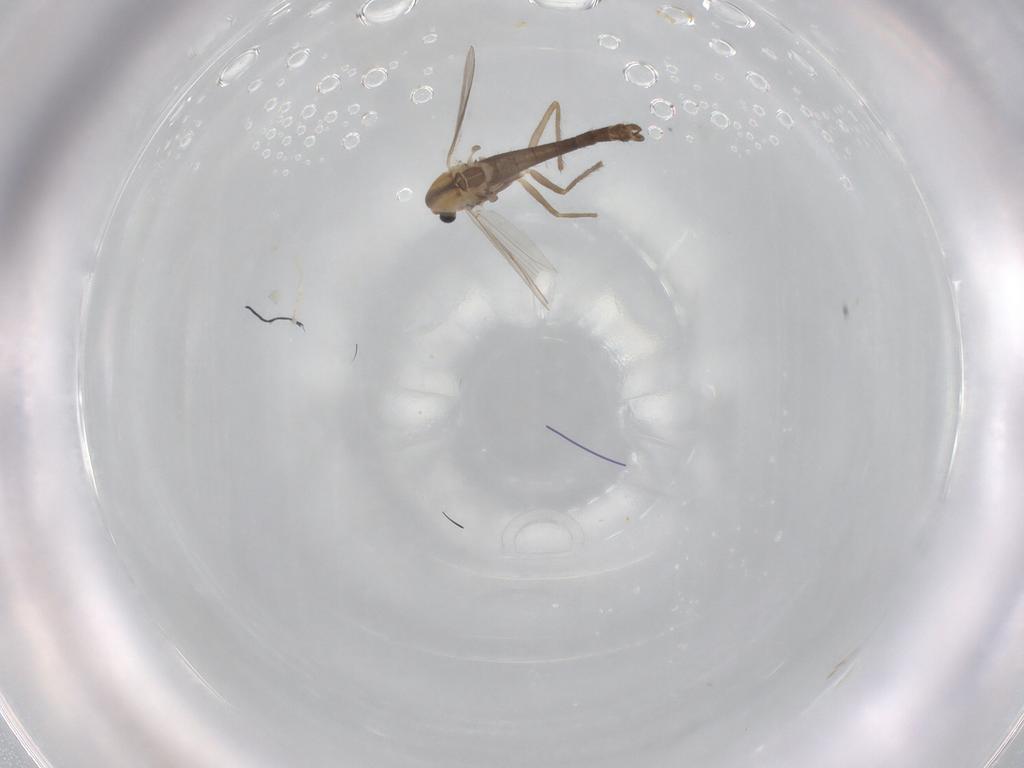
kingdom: Animalia
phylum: Arthropoda
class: Insecta
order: Diptera
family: Chironomidae
